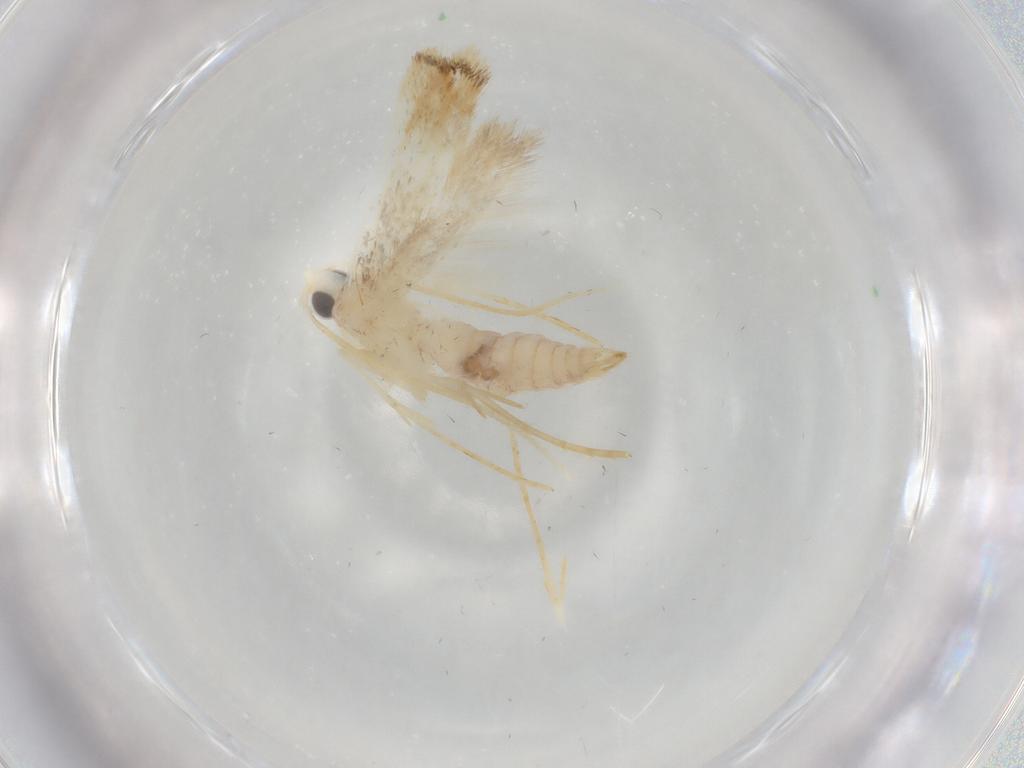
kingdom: Animalia
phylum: Arthropoda
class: Insecta
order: Lepidoptera
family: Lyonetiidae
